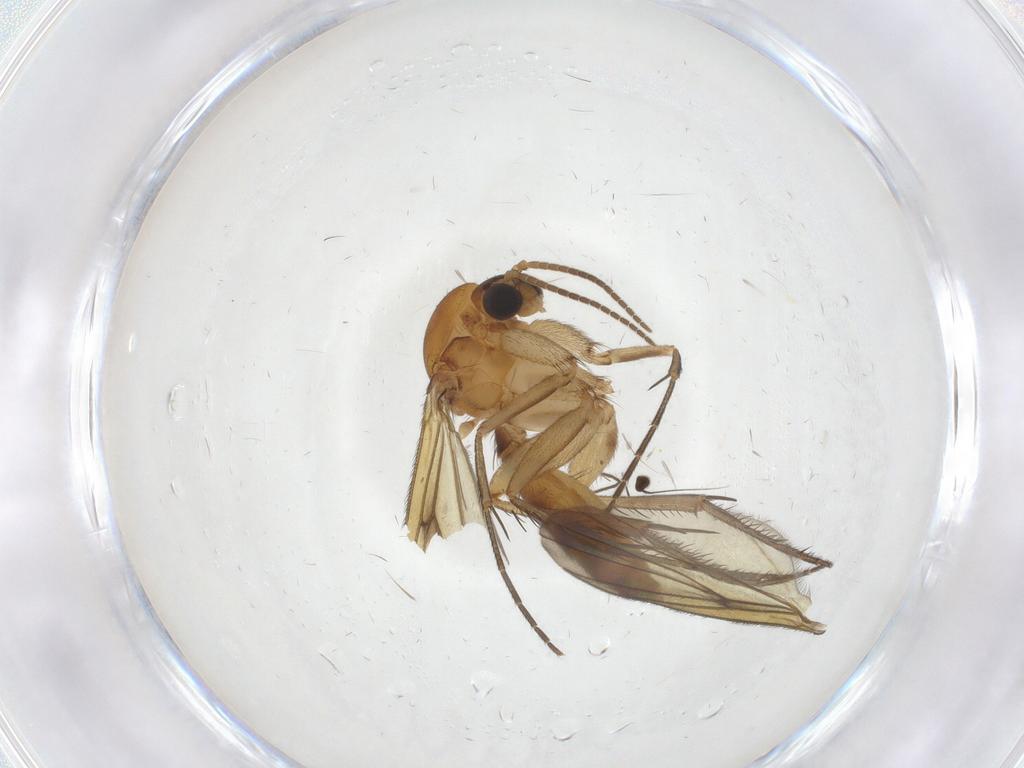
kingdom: Animalia
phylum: Arthropoda
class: Insecta
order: Diptera
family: Mycetophilidae
